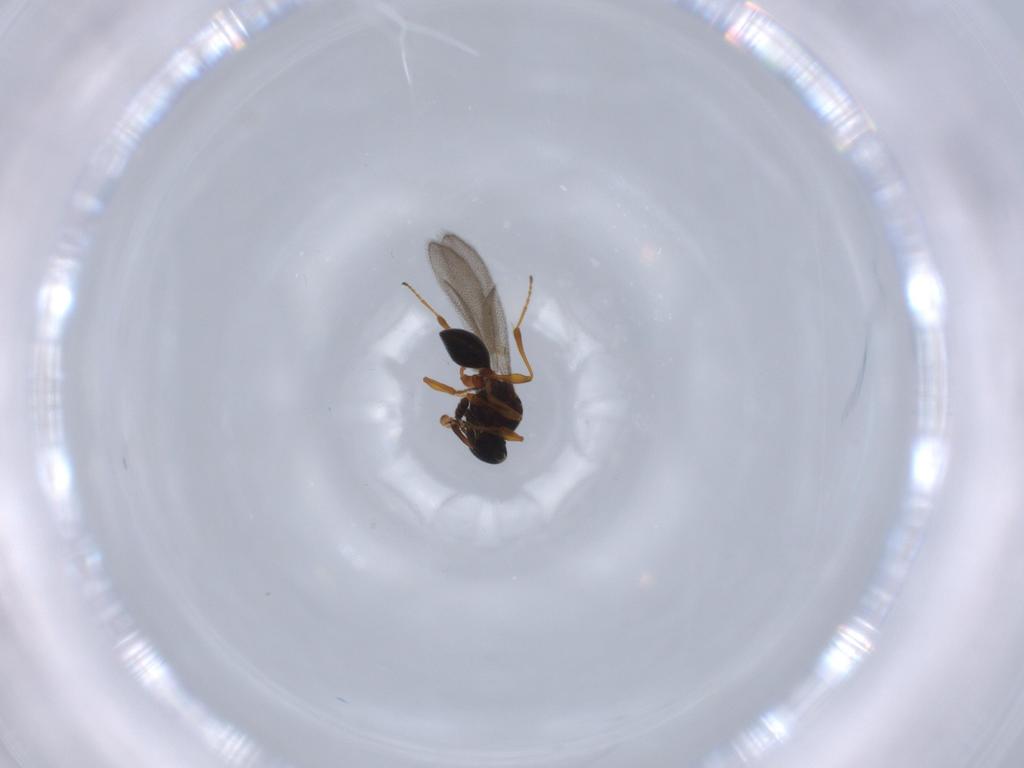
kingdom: Animalia
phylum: Arthropoda
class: Insecta
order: Hymenoptera
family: Platygastridae
